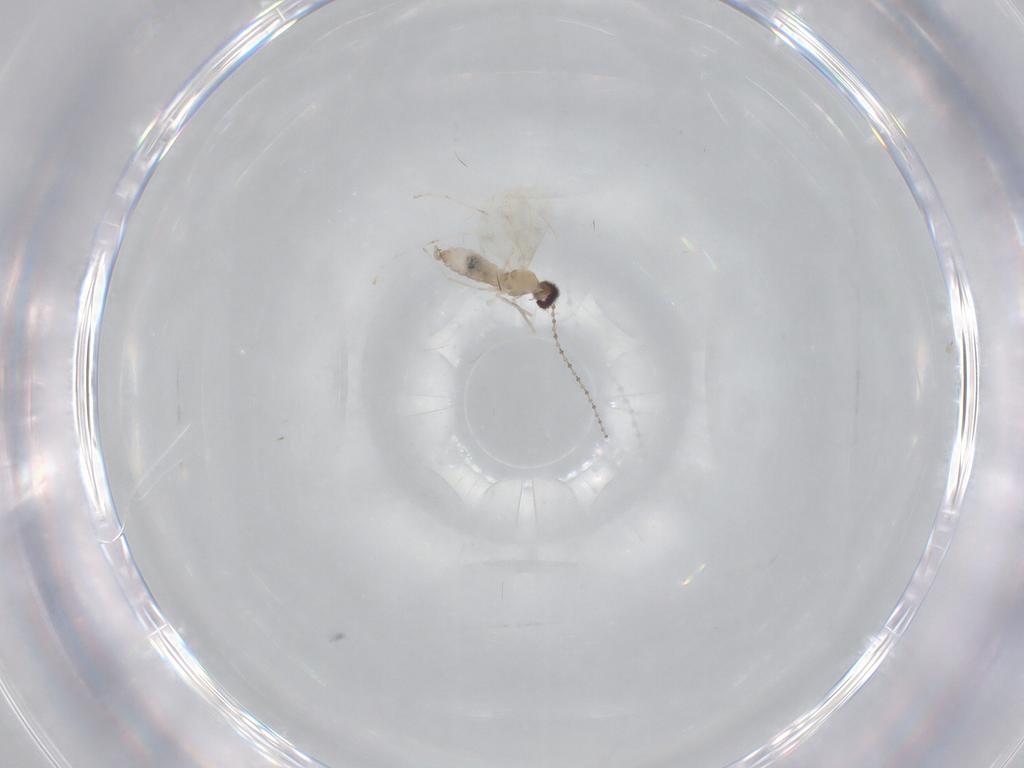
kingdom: Animalia
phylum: Arthropoda
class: Insecta
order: Diptera
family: Cecidomyiidae
